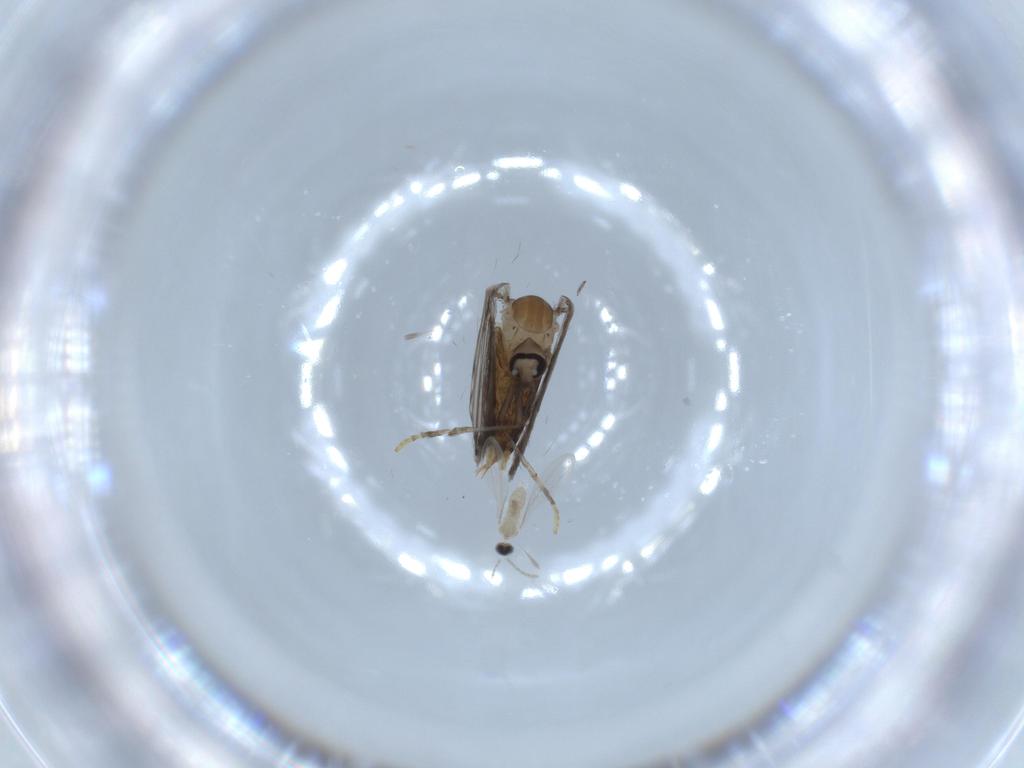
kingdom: Animalia
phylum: Arthropoda
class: Insecta
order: Diptera
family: Psychodidae
